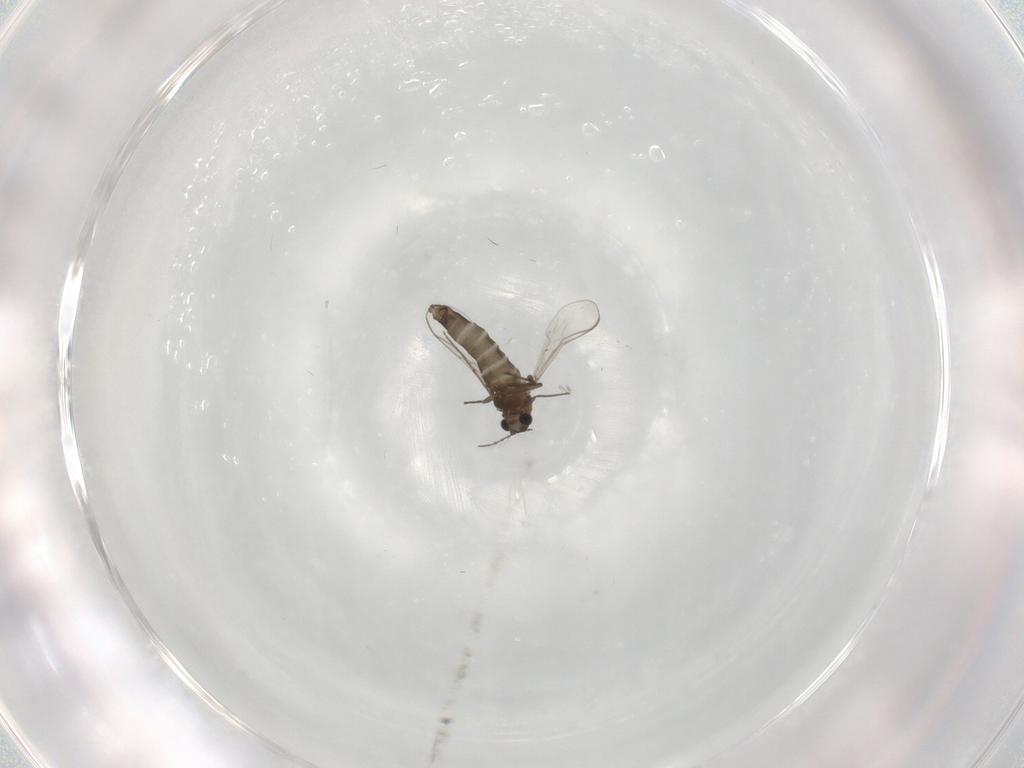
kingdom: Animalia
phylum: Arthropoda
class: Insecta
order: Diptera
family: Chironomidae
